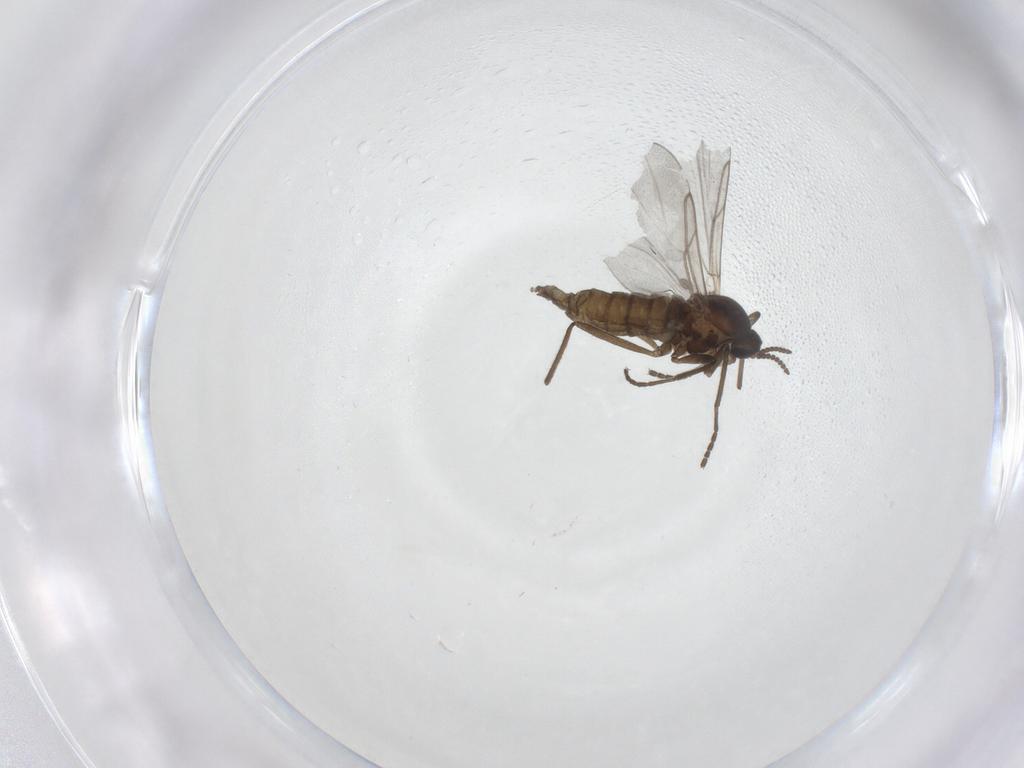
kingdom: Animalia
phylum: Arthropoda
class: Insecta
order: Diptera
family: Cecidomyiidae
